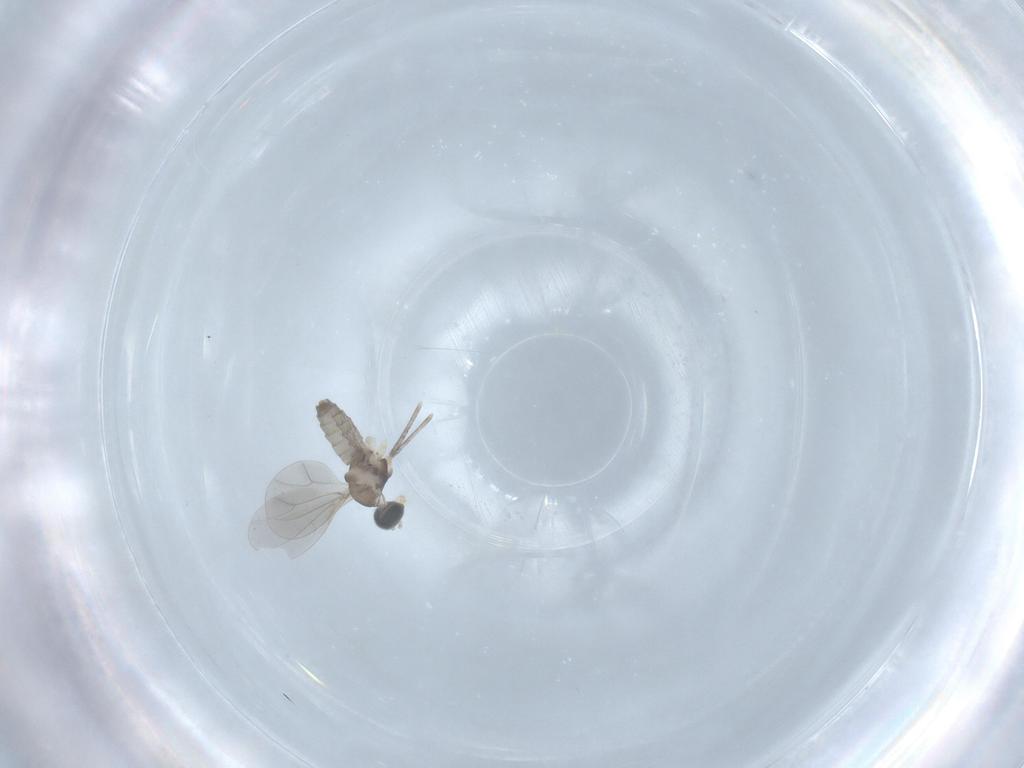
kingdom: Animalia
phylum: Arthropoda
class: Insecta
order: Diptera
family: Cecidomyiidae
